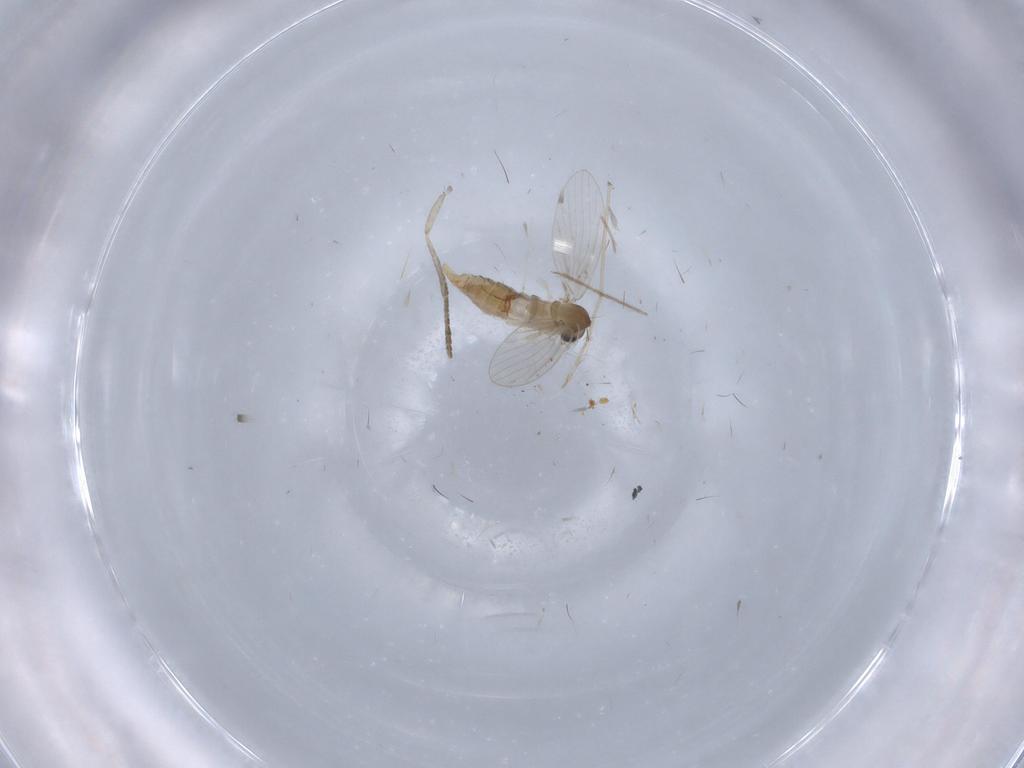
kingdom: Animalia
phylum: Arthropoda
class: Insecta
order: Diptera
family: Psychodidae
